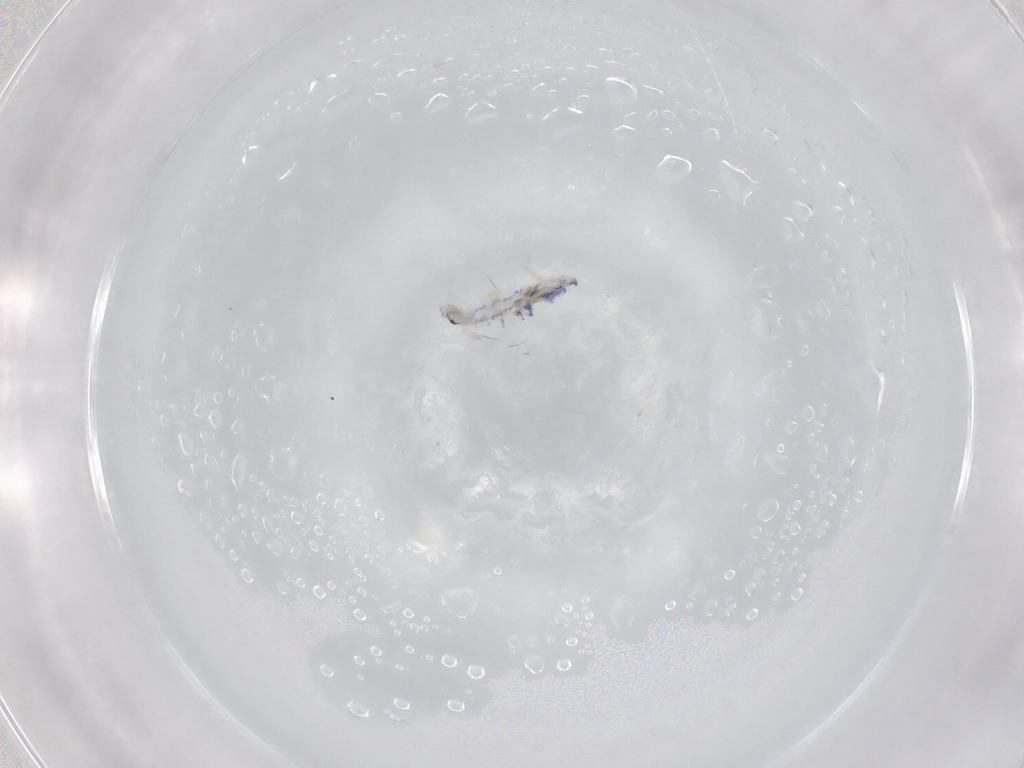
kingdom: Animalia
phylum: Arthropoda
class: Collembola
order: Entomobryomorpha
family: Entomobryidae
